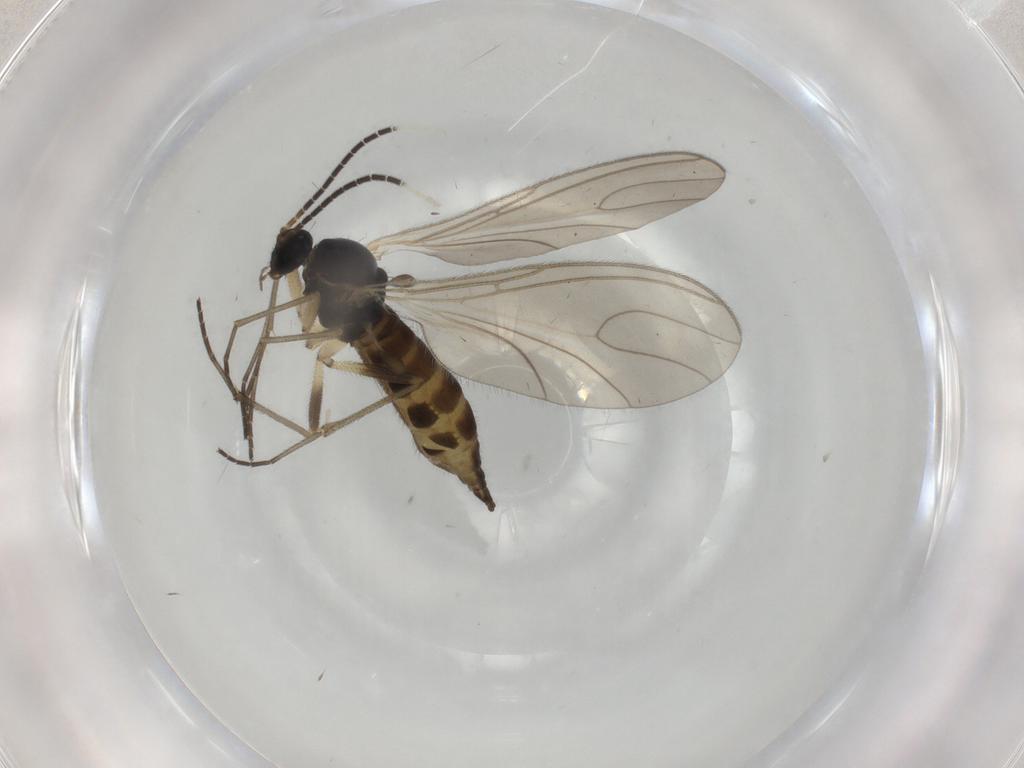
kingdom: Animalia
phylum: Arthropoda
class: Insecta
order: Diptera
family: Sciaridae
